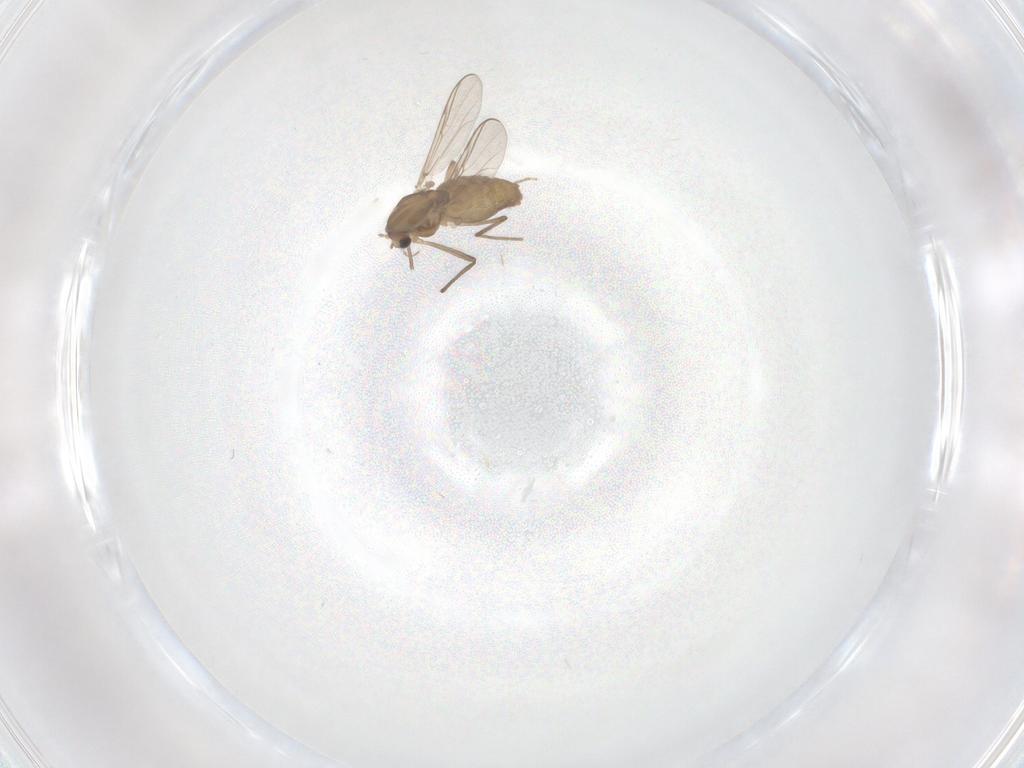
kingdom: Animalia
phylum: Arthropoda
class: Insecta
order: Diptera
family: Chironomidae
